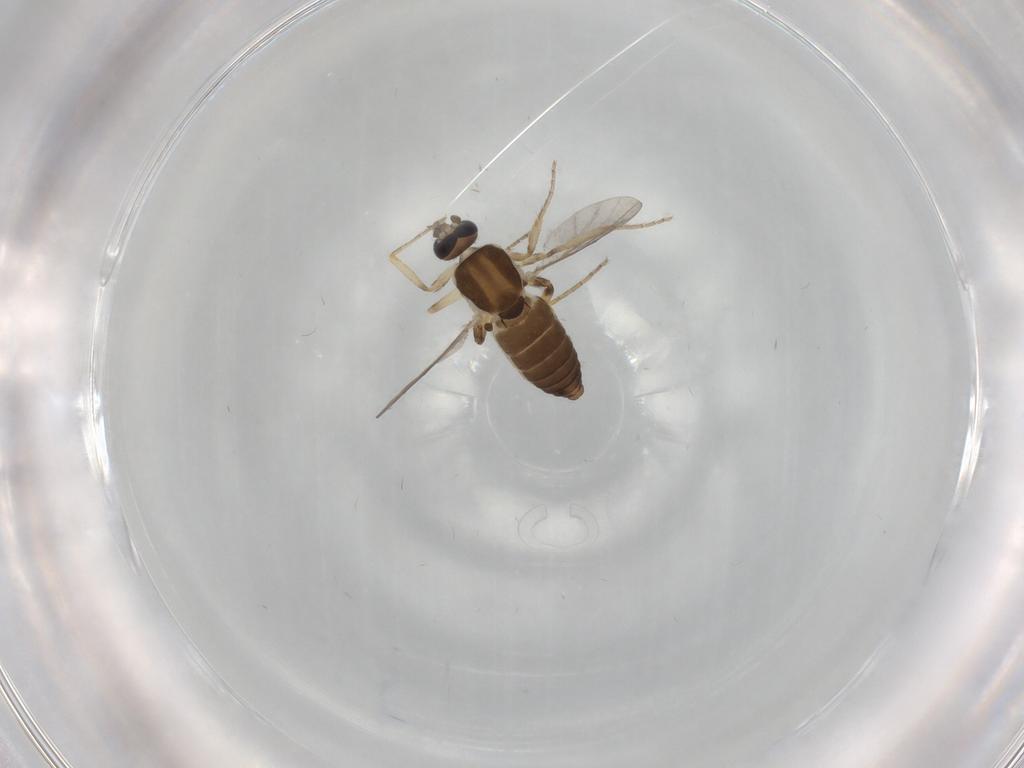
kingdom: Animalia
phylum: Arthropoda
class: Insecta
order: Diptera
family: Ceratopogonidae
